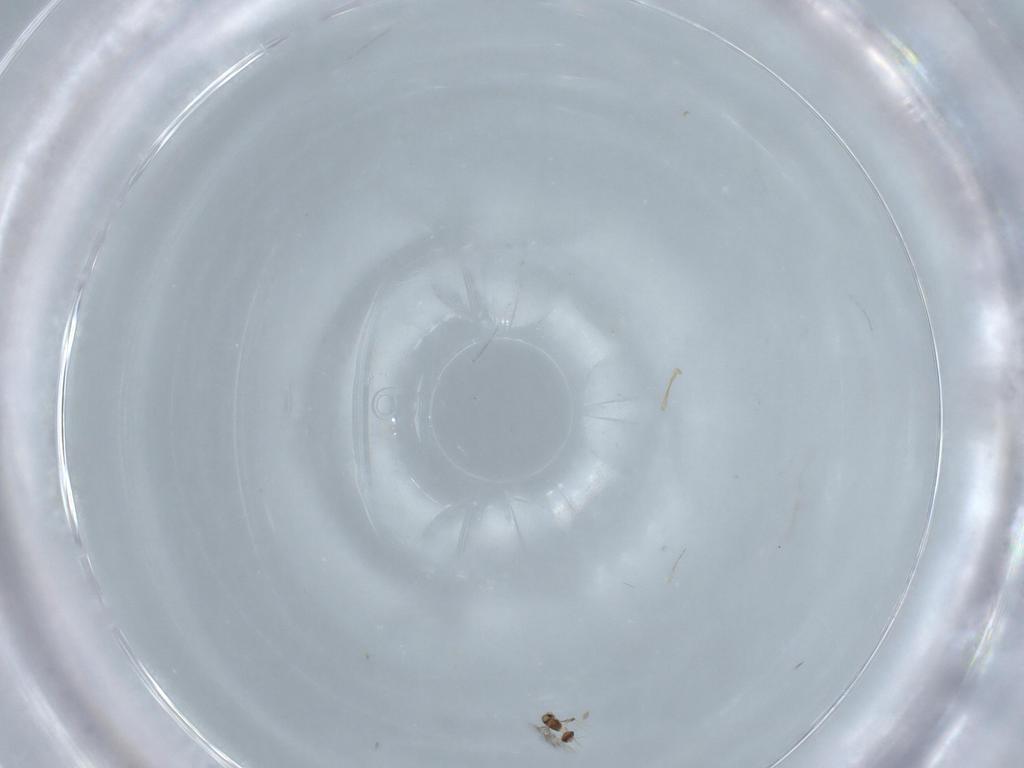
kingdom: Animalia
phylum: Arthropoda
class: Insecta
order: Hymenoptera
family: Mymarommatidae
